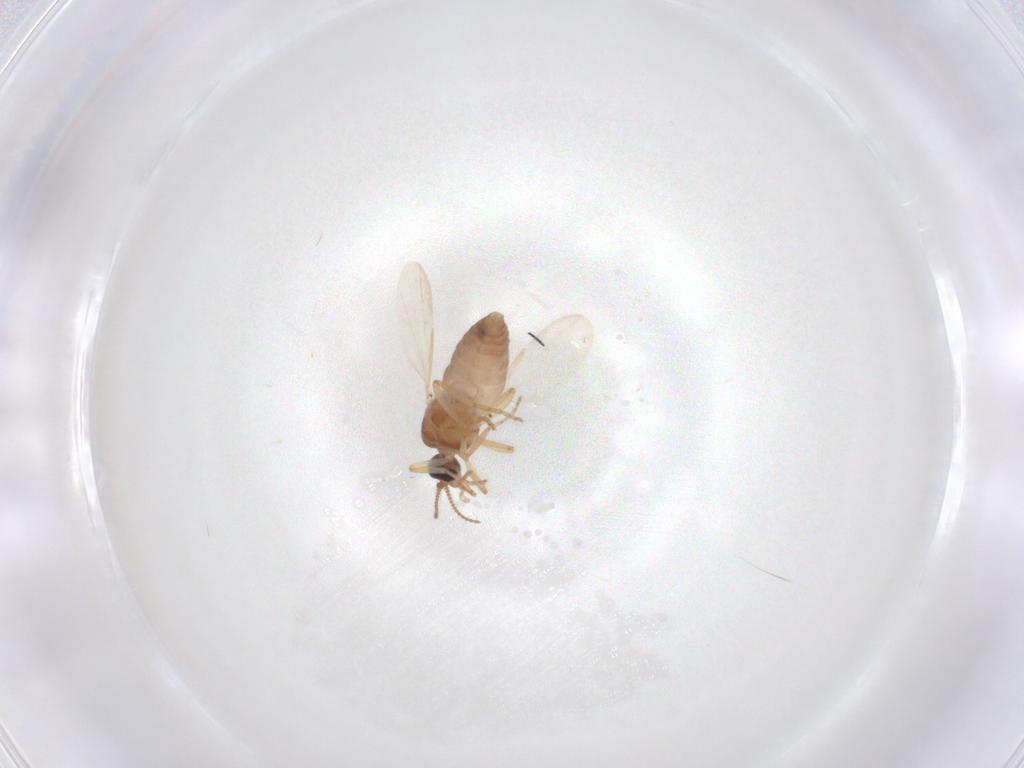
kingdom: Animalia
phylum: Arthropoda
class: Insecta
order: Diptera
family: Ceratopogonidae
